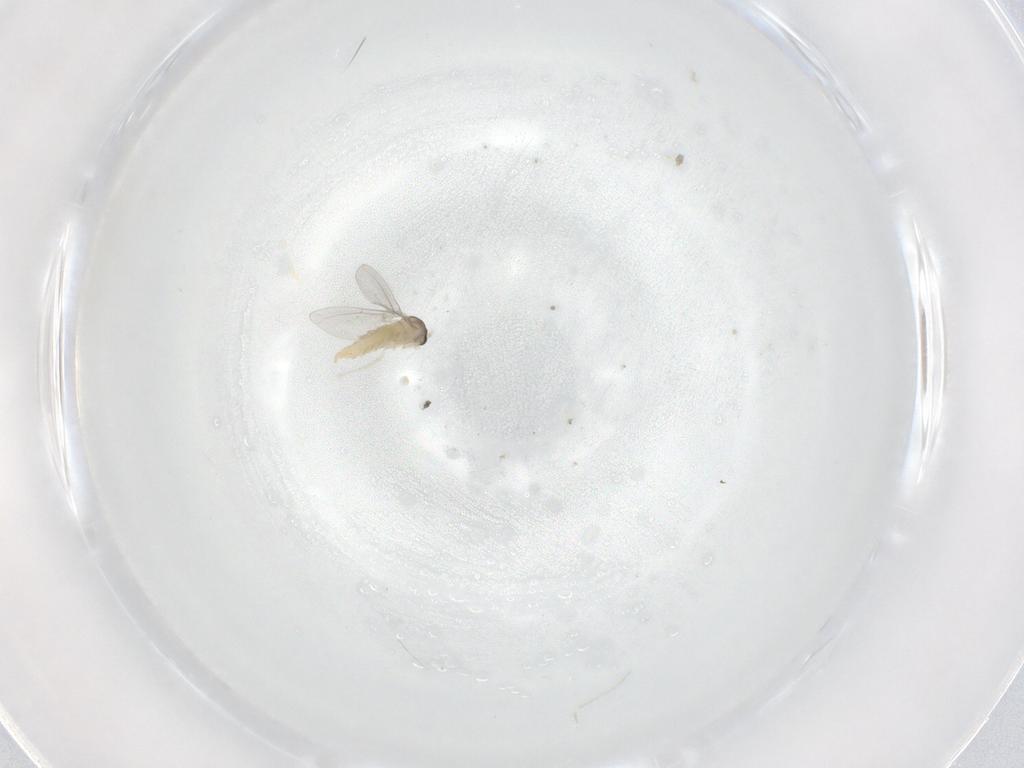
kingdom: Animalia
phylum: Arthropoda
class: Insecta
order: Diptera
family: Cecidomyiidae
